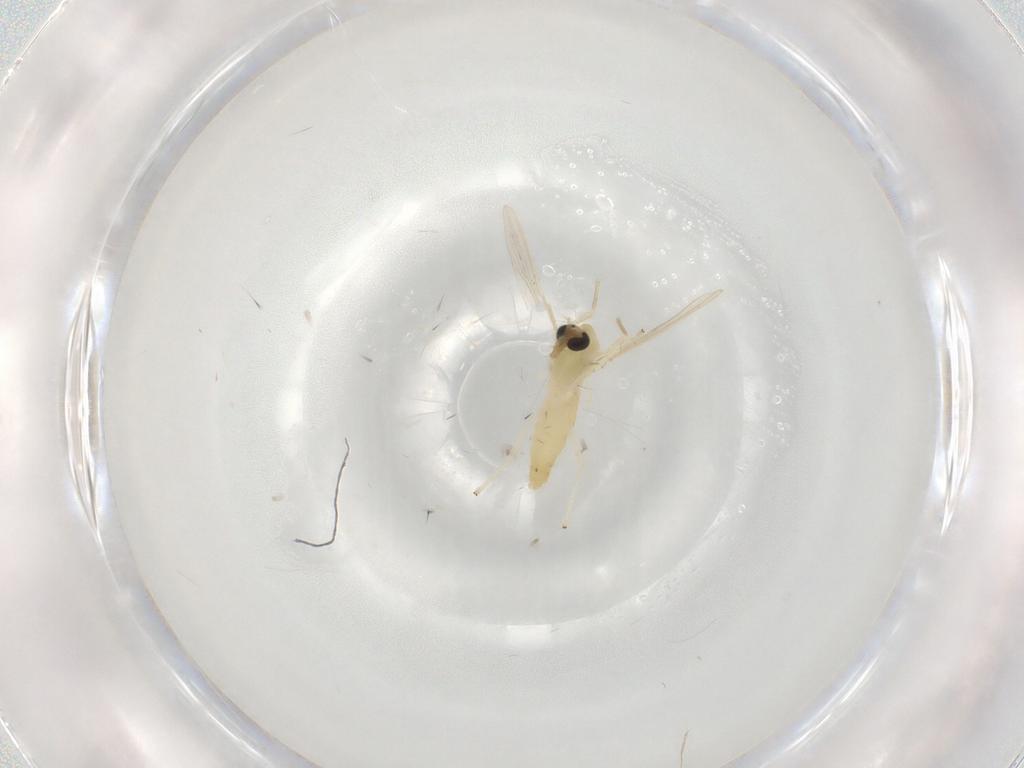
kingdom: Animalia
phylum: Arthropoda
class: Insecta
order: Diptera
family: Chironomidae
